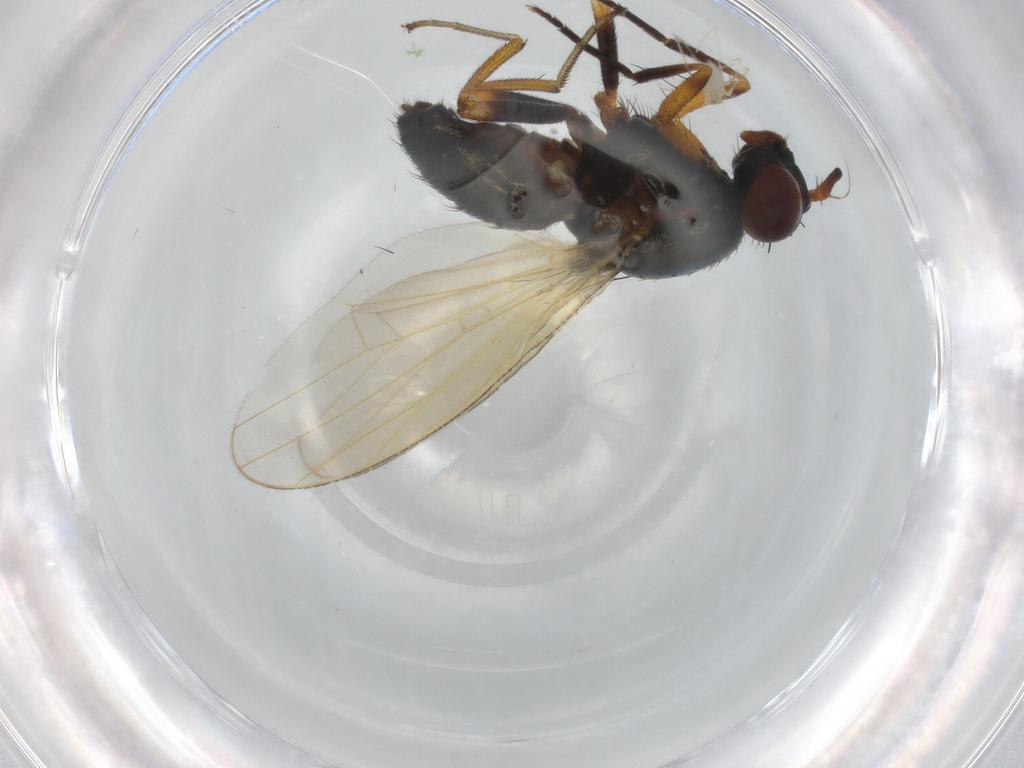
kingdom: Animalia
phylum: Arthropoda
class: Insecta
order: Diptera
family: Lauxaniidae
